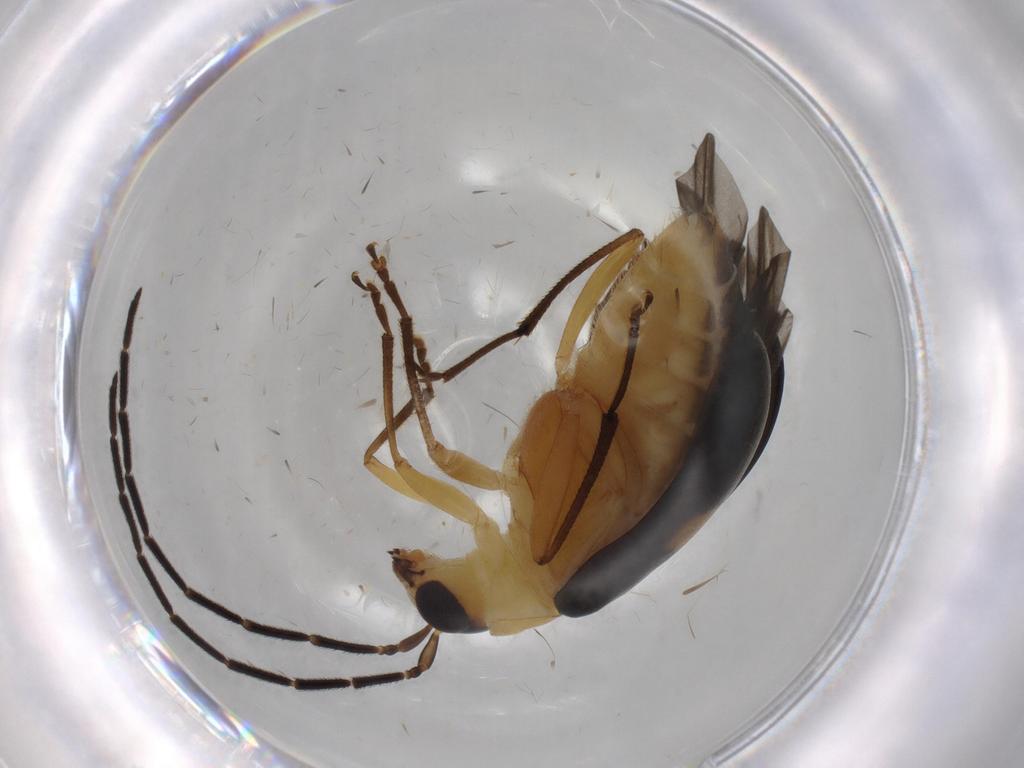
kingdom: Animalia
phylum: Arthropoda
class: Insecta
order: Coleoptera
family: Chrysomelidae
